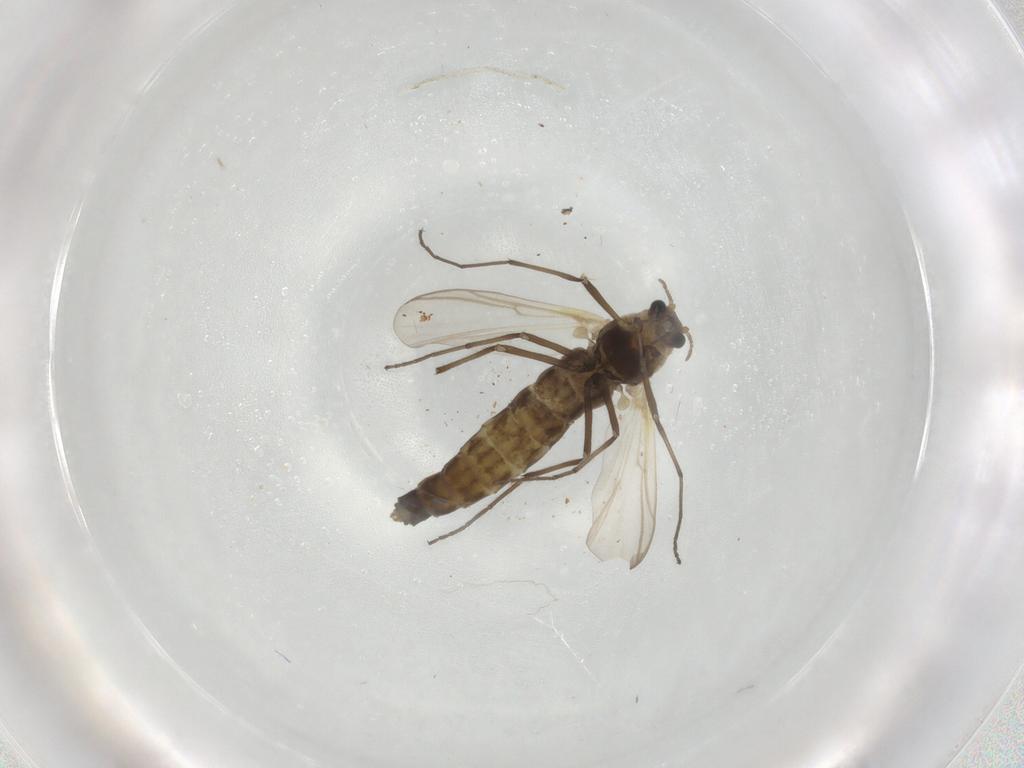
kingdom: Animalia
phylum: Arthropoda
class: Insecta
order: Diptera
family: Chironomidae
